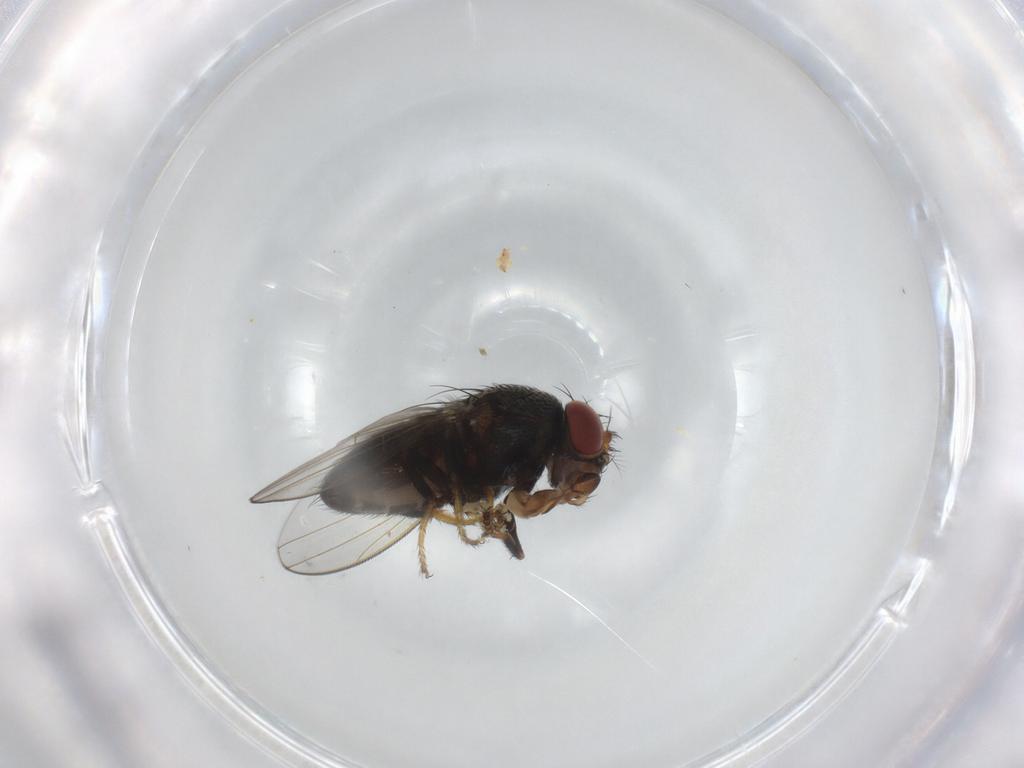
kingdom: Animalia
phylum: Arthropoda
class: Insecta
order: Diptera
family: Ephydridae
